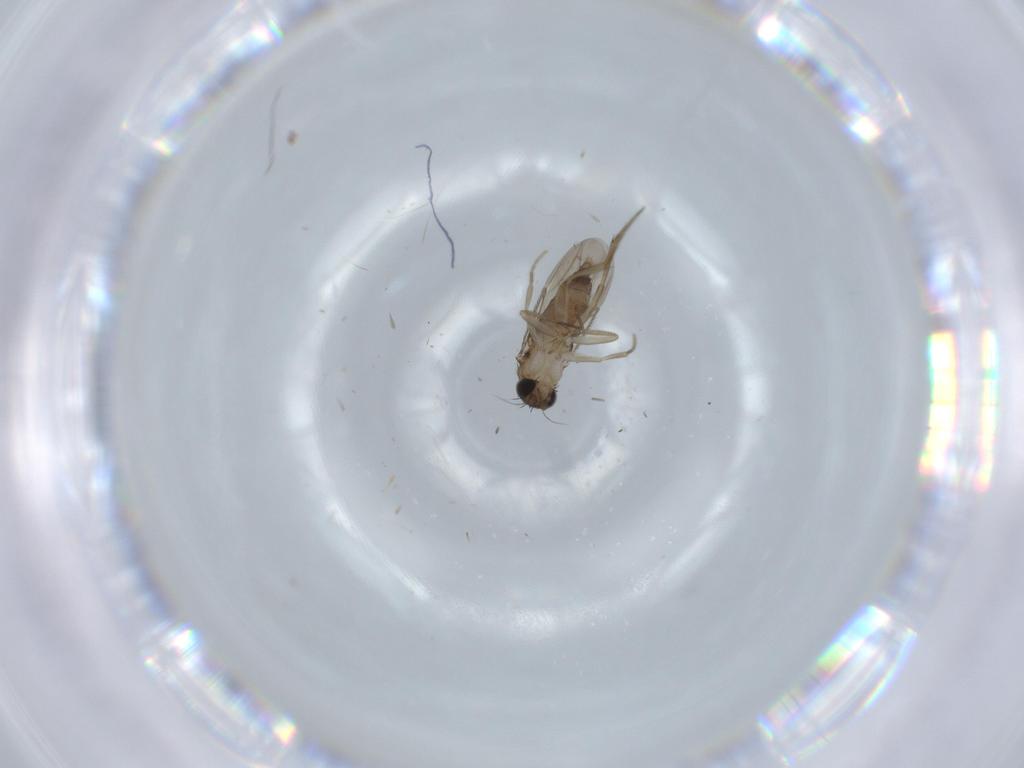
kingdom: Animalia
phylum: Arthropoda
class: Insecta
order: Diptera
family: Phoridae
